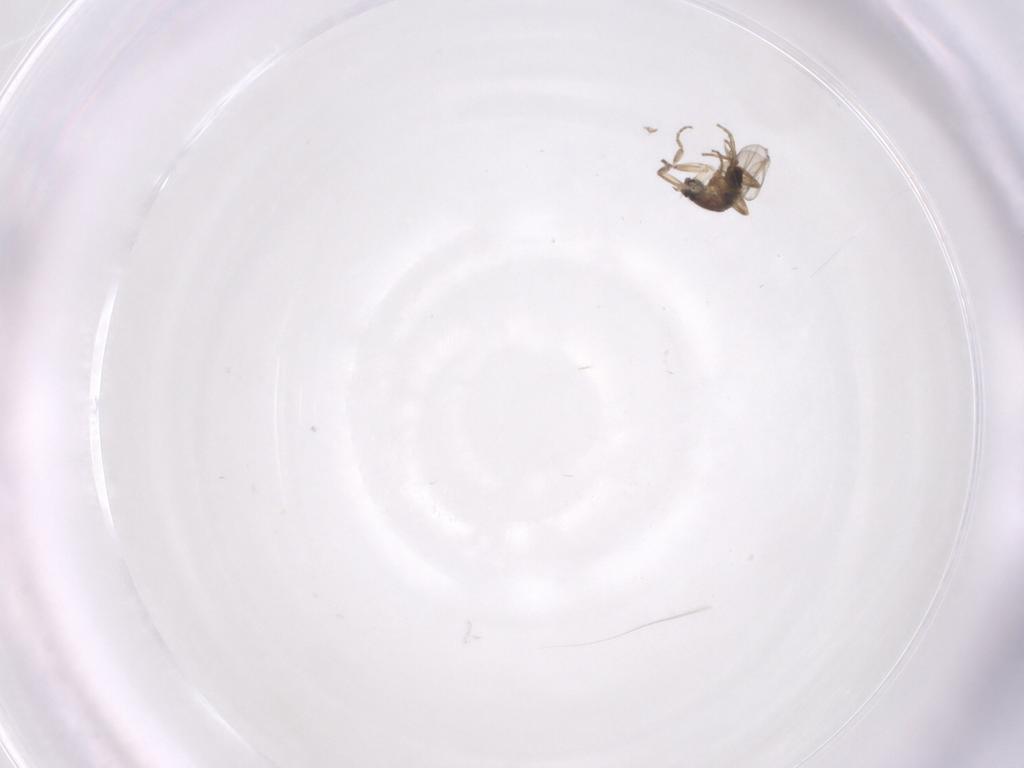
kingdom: Animalia
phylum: Arthropoda
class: Insecta
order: Diptera
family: Phoridae
